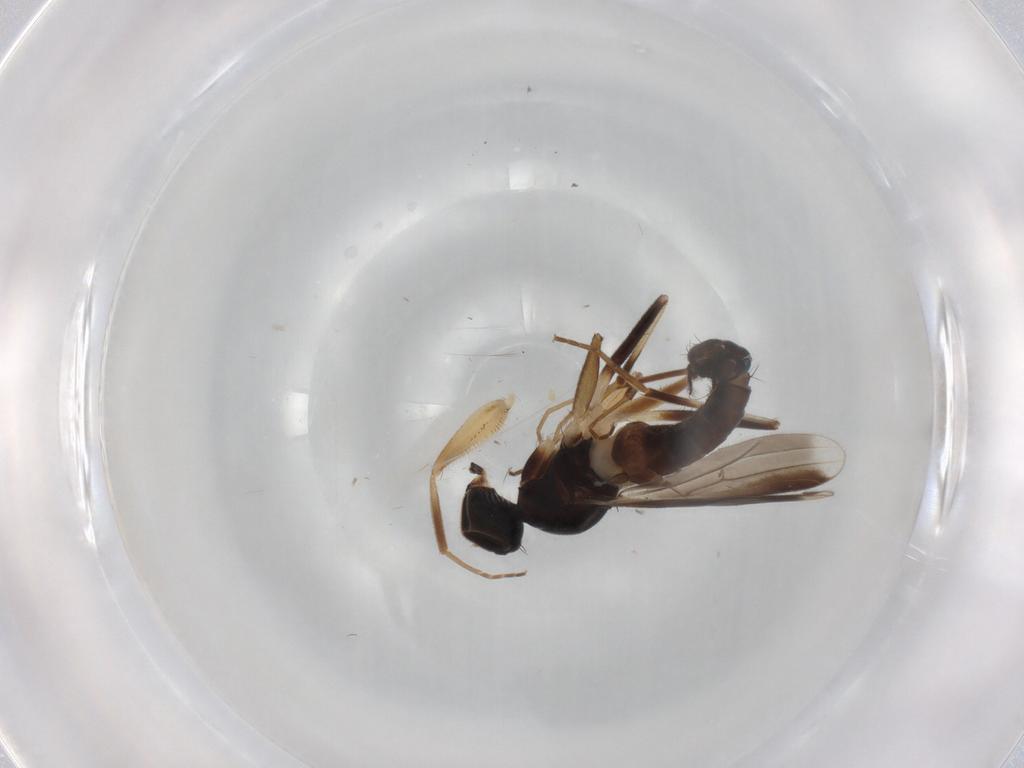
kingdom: Animalia
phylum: Arthropoda
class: Insecta
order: Diptera
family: Hybotidae
